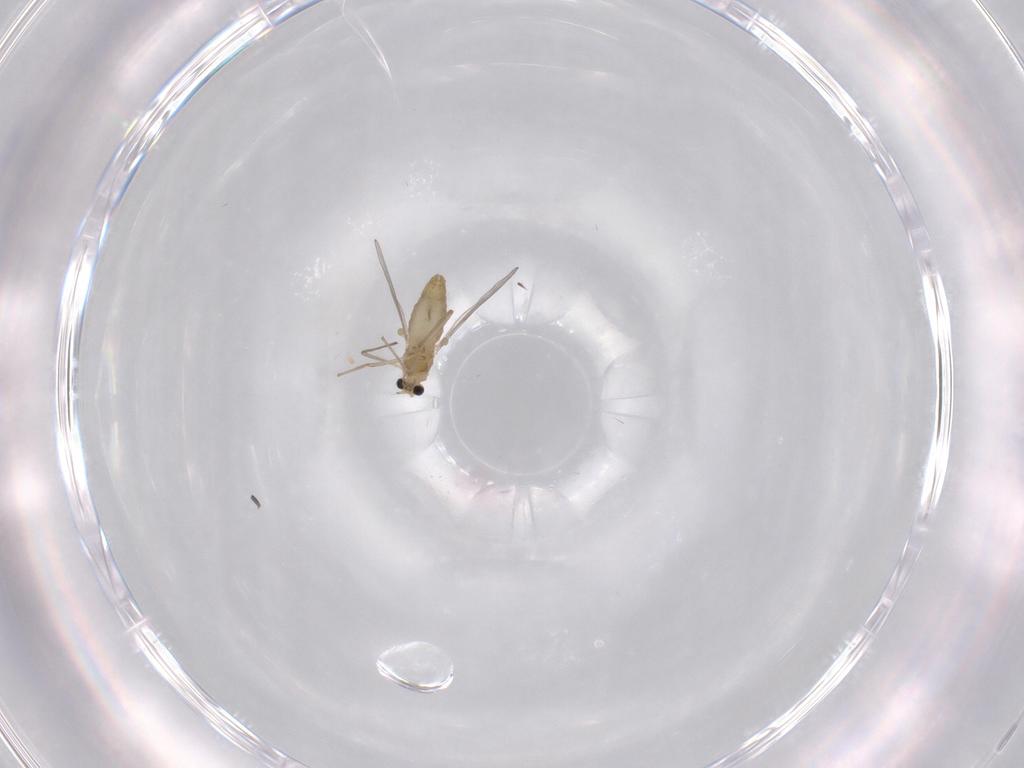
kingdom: Animalia
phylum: Arthropoda
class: Insecta
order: Diptera
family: Chironomidae
